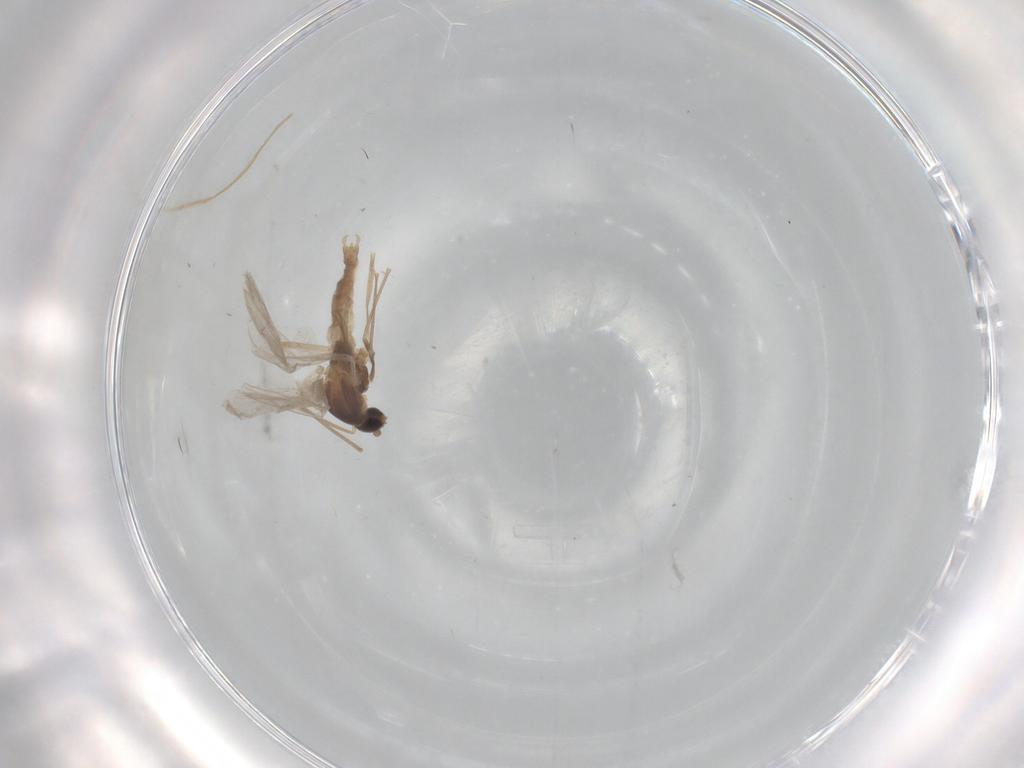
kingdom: Animalia
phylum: Arthropoda
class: Insecta
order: Diptera
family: Cecidomyiidae
